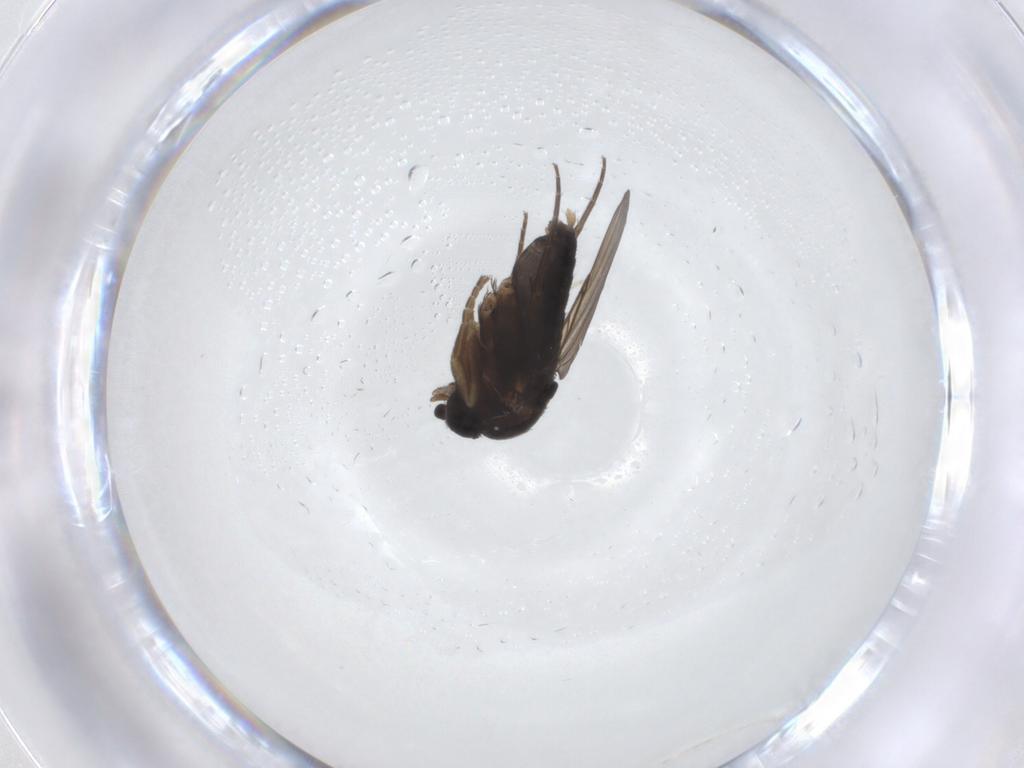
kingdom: Animalia
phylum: Arthropoda
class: Insecta
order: Diptera
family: Phoridae
